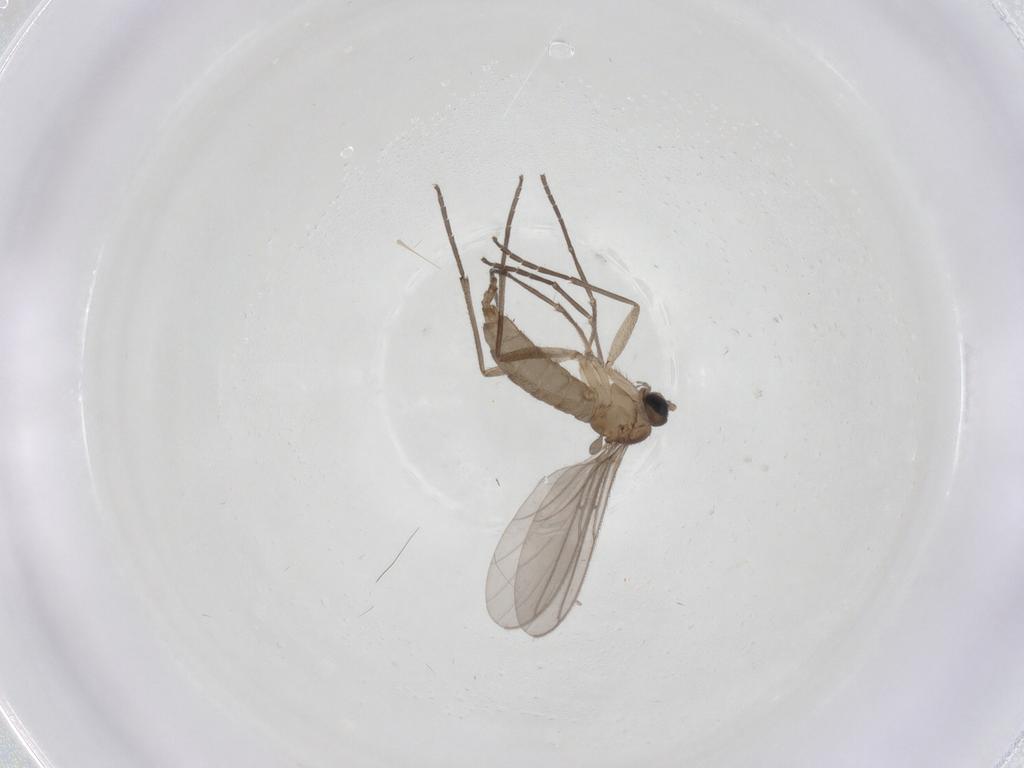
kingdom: Animalia
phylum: Arthropoda
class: Insecta
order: Diptera
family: Sciaridae
